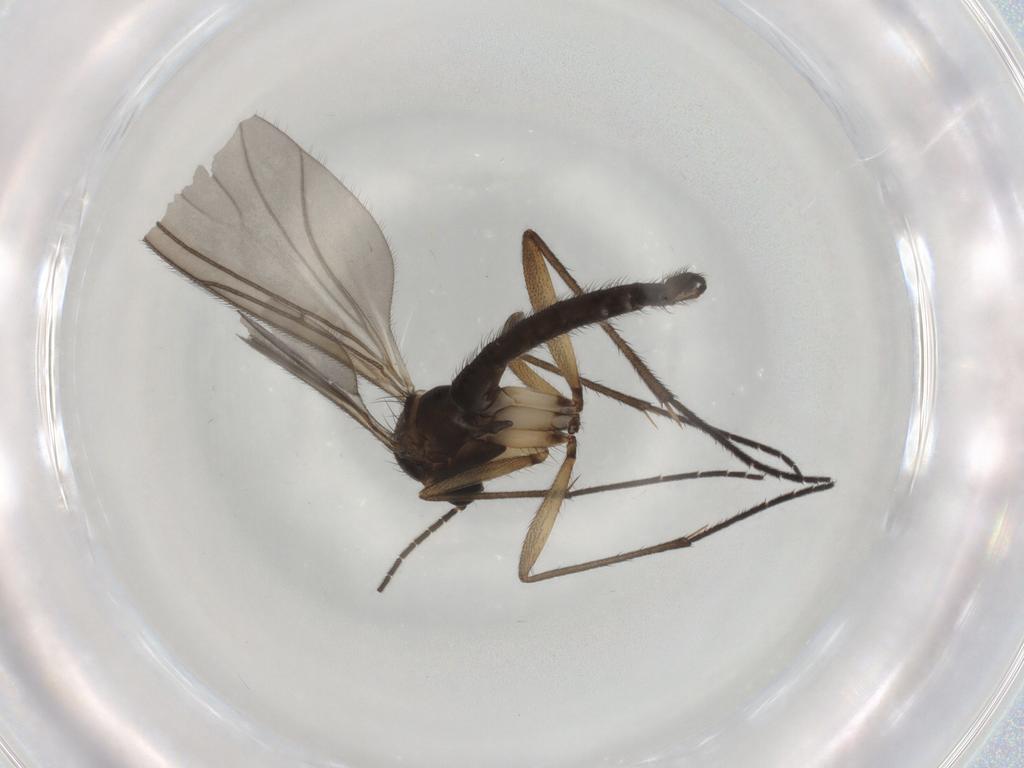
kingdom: Animalia
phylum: Arthropoda
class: Insecta
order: Diptera
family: Sciaridae
